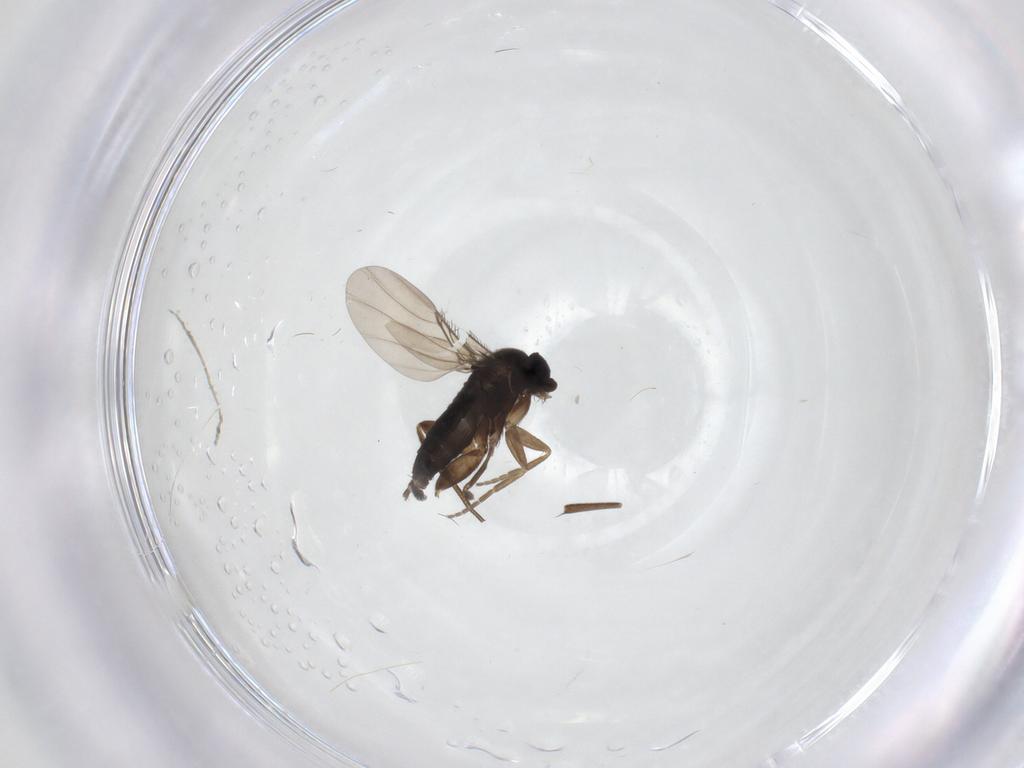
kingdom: Animalia
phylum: Arthropoda
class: Insecta
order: Diptera
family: Phoridae
